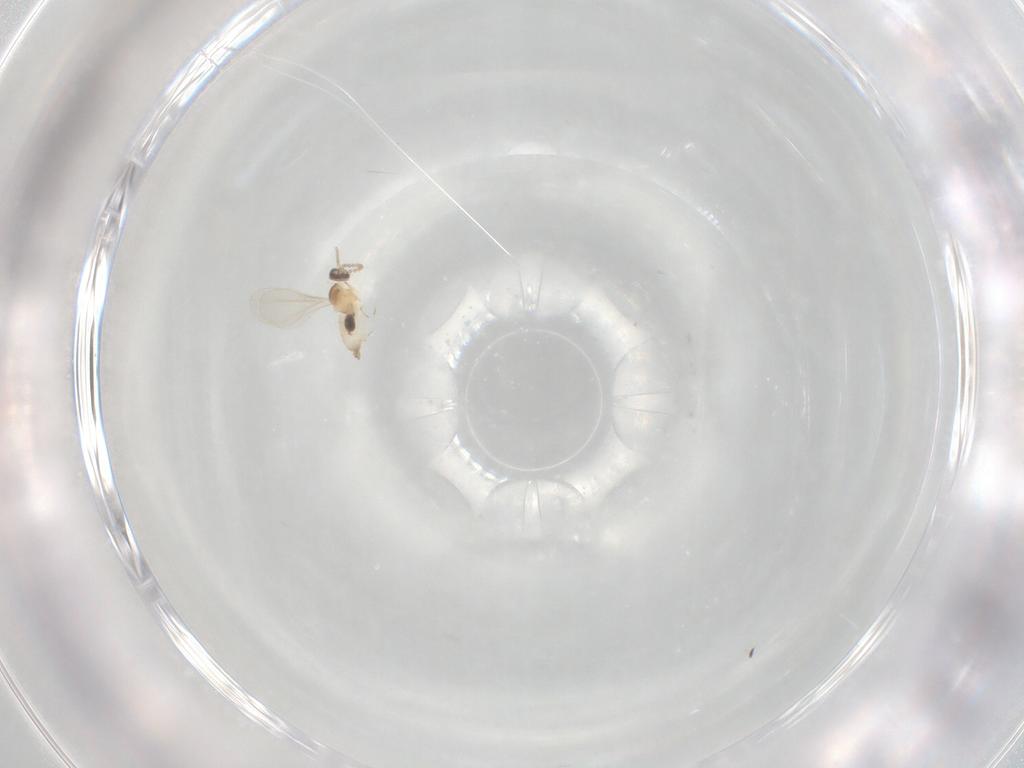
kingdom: Animalia
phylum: Arthropoda
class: Insecta
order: Diptera
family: Cecidomyiidae
